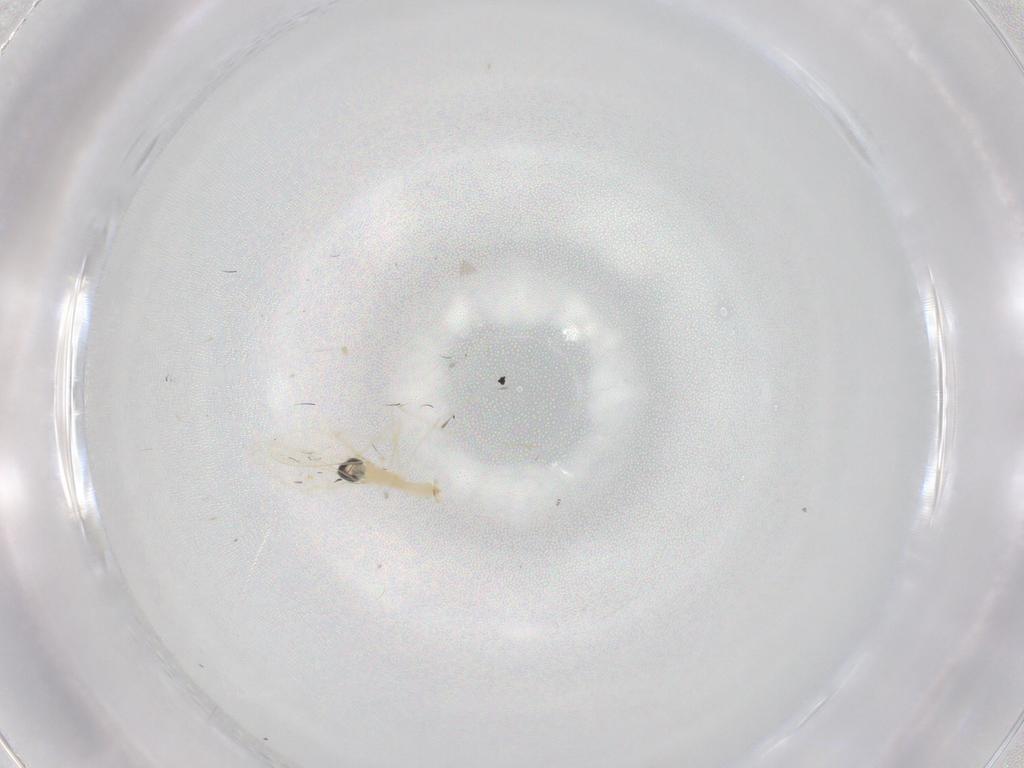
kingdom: Animalia
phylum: Arthropoda
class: Insecta
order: Diptera
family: Cecidomyiidae
